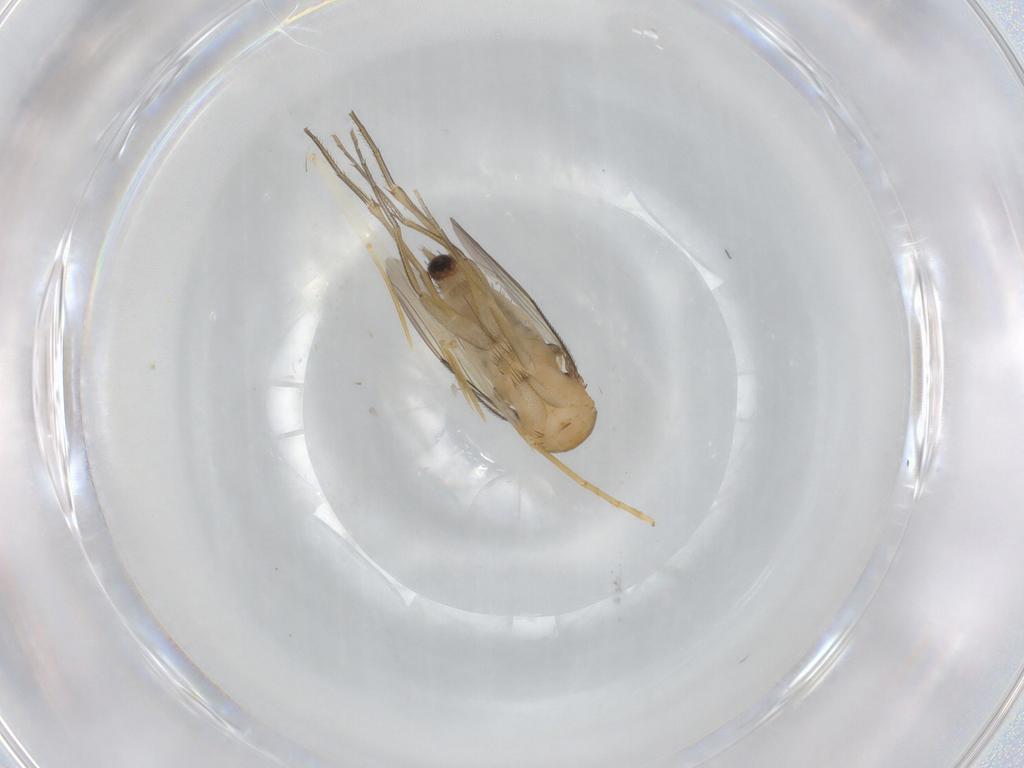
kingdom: Animalia
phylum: Arthropoda
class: Insecta
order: Diptera
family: Phoridae
